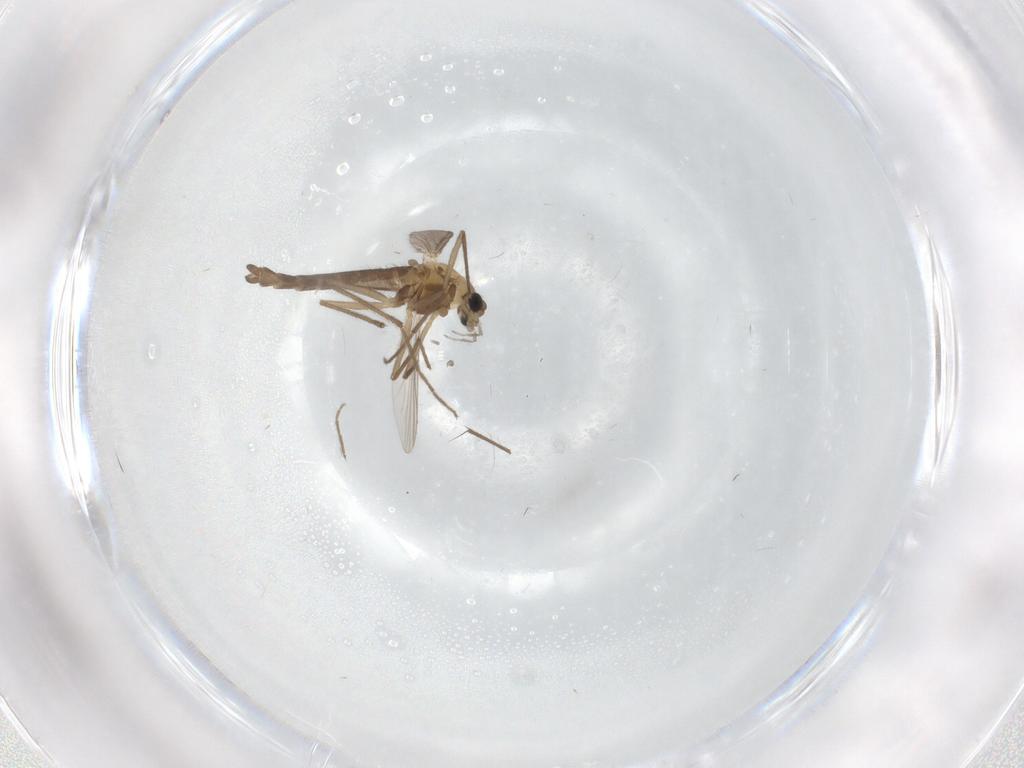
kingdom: Animalia
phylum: Arthropoda
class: Insecta
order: Diptera
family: Chironomidae
